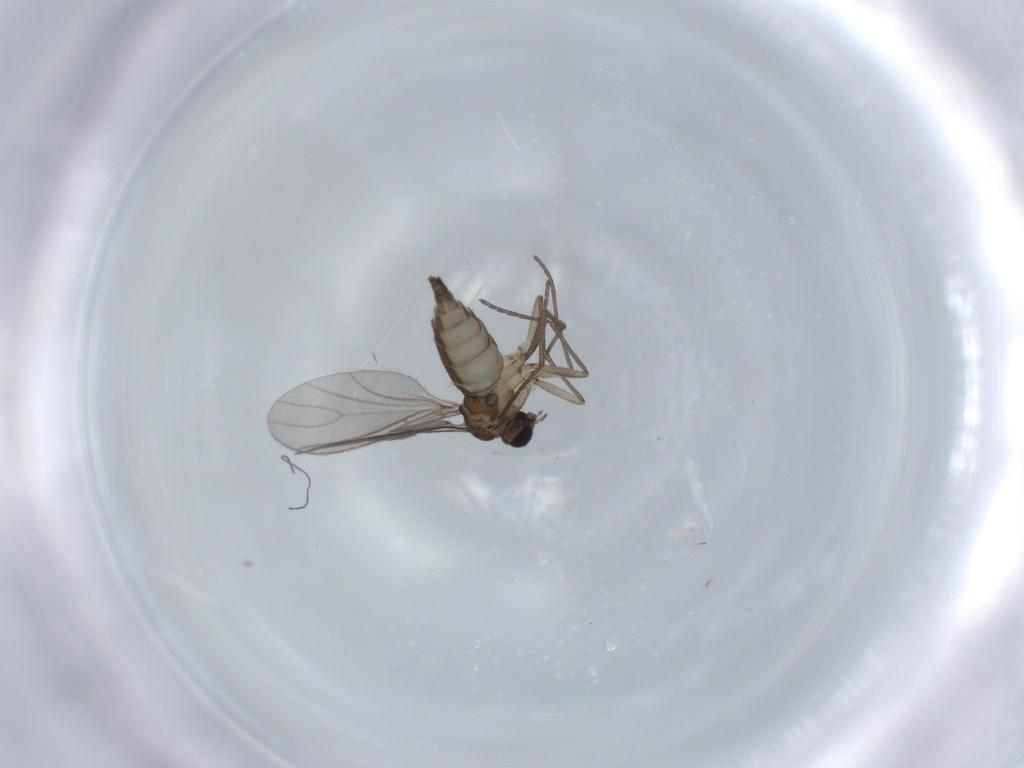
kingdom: Animalia
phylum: Arthropoda
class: Insecta
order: Diptera
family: Sciaridae
